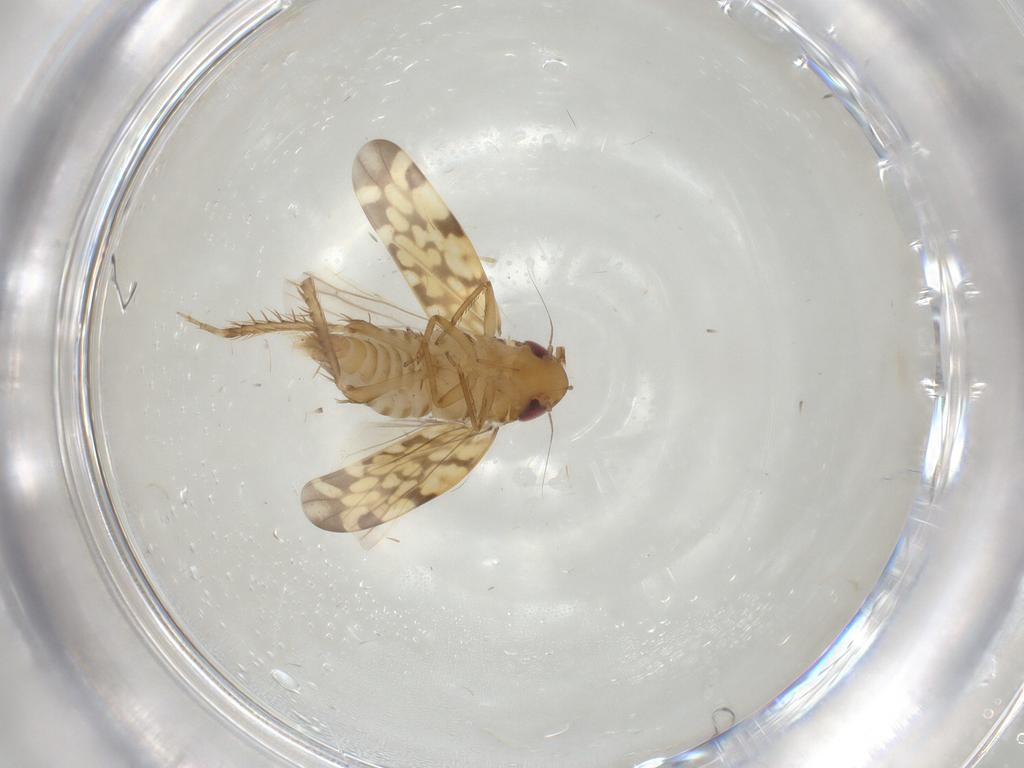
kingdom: Animalia
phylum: Arthropoda
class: Insecta
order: Hemiptera
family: Cicadellidae
